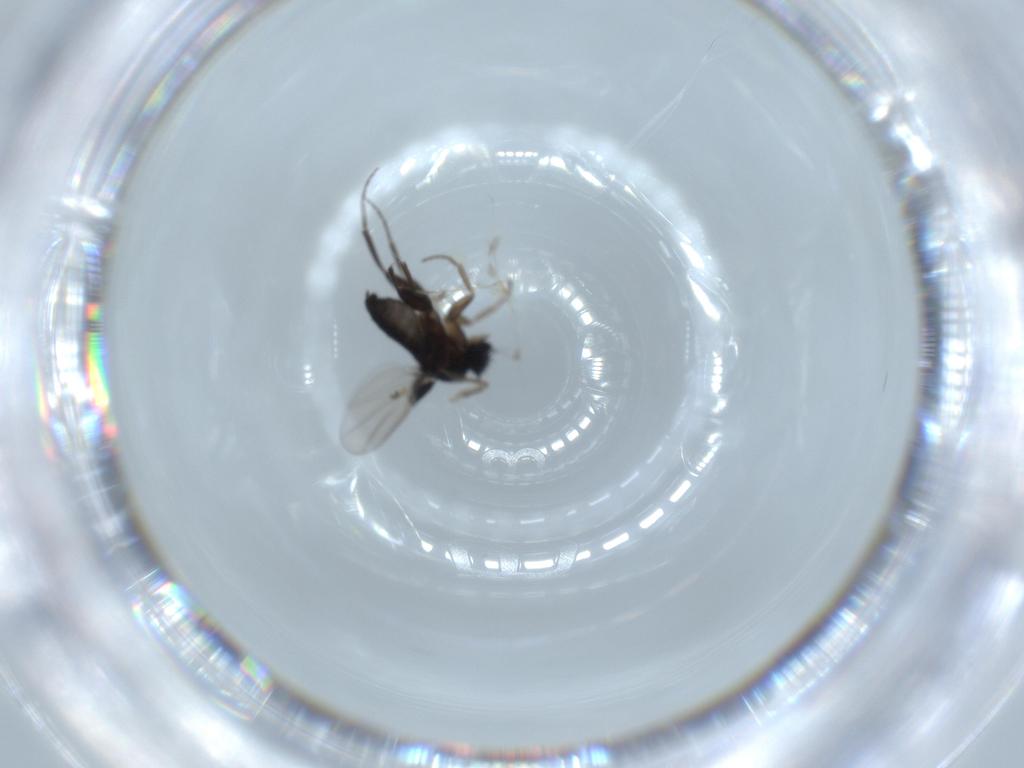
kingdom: Animalia
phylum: Arthropoda
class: Insecta
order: Diptera
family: Phoridae
